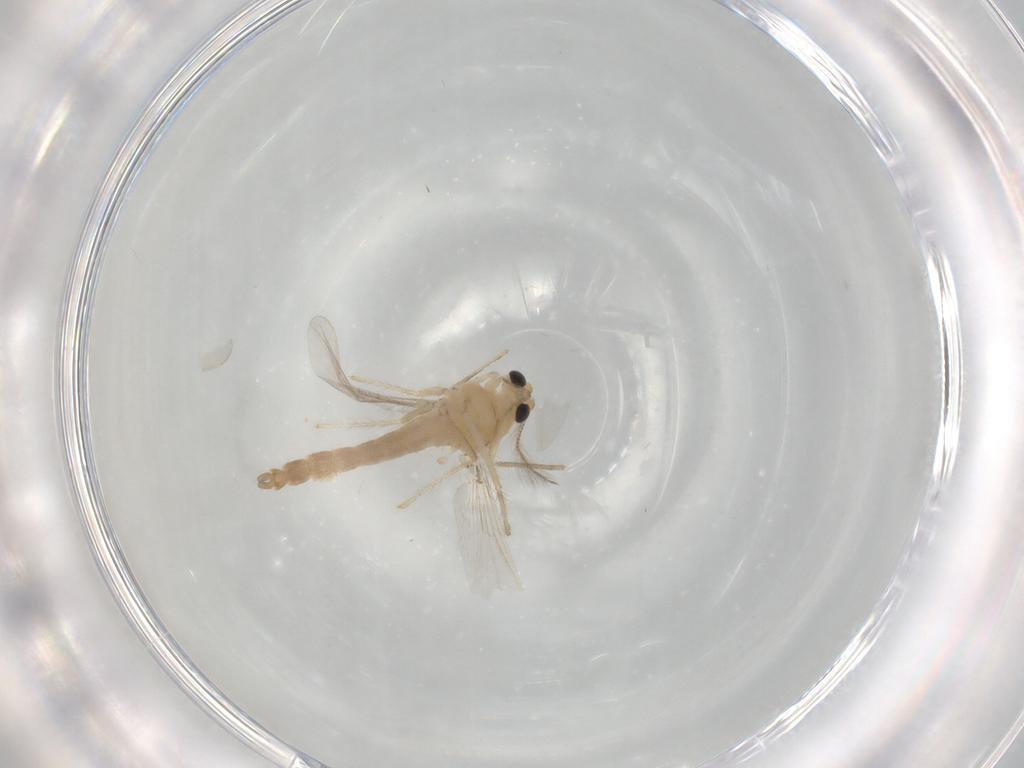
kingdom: Animalia
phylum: Arthropoda
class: Insecta
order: Diptera
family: Chironomidae
